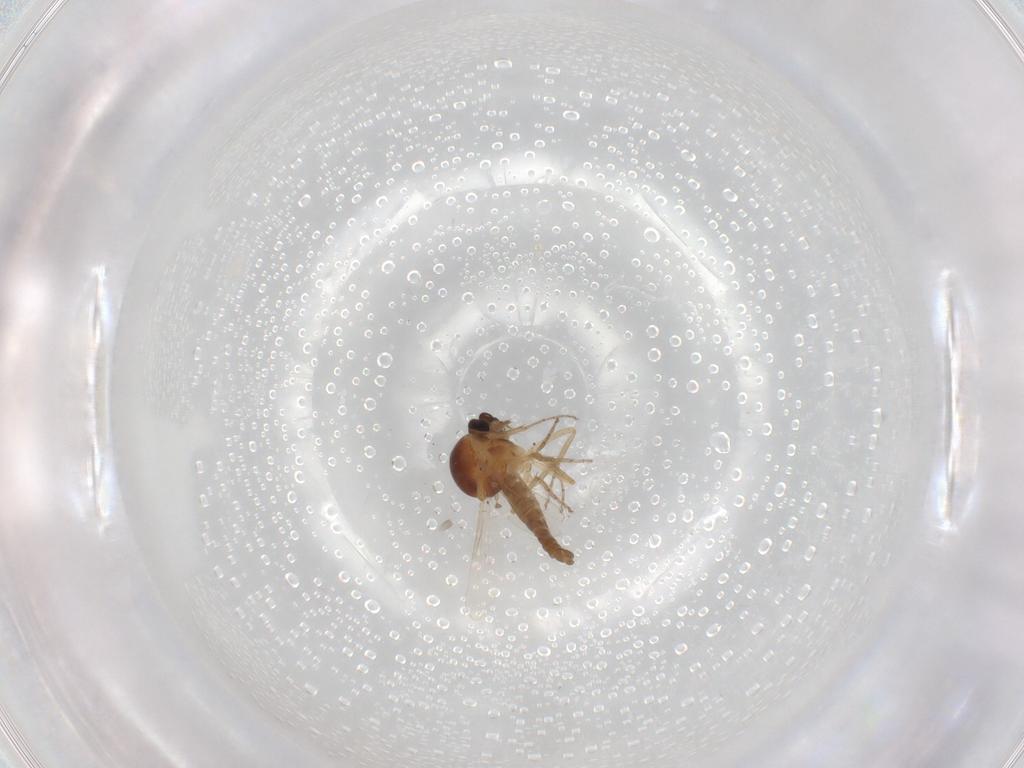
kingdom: Animalia
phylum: Arthropoda
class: Insecta
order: Diptera
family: Ceratopogonidae
